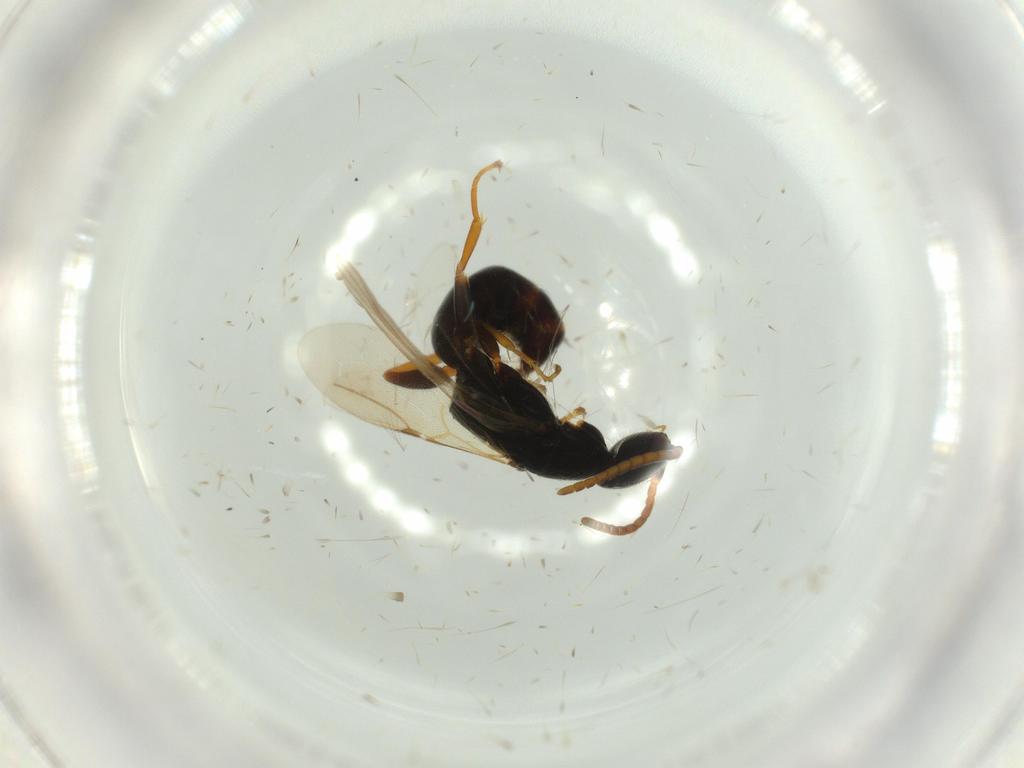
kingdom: Animalia
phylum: Arthropoda
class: Insecta
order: Hymenoptera
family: Bethylidae
